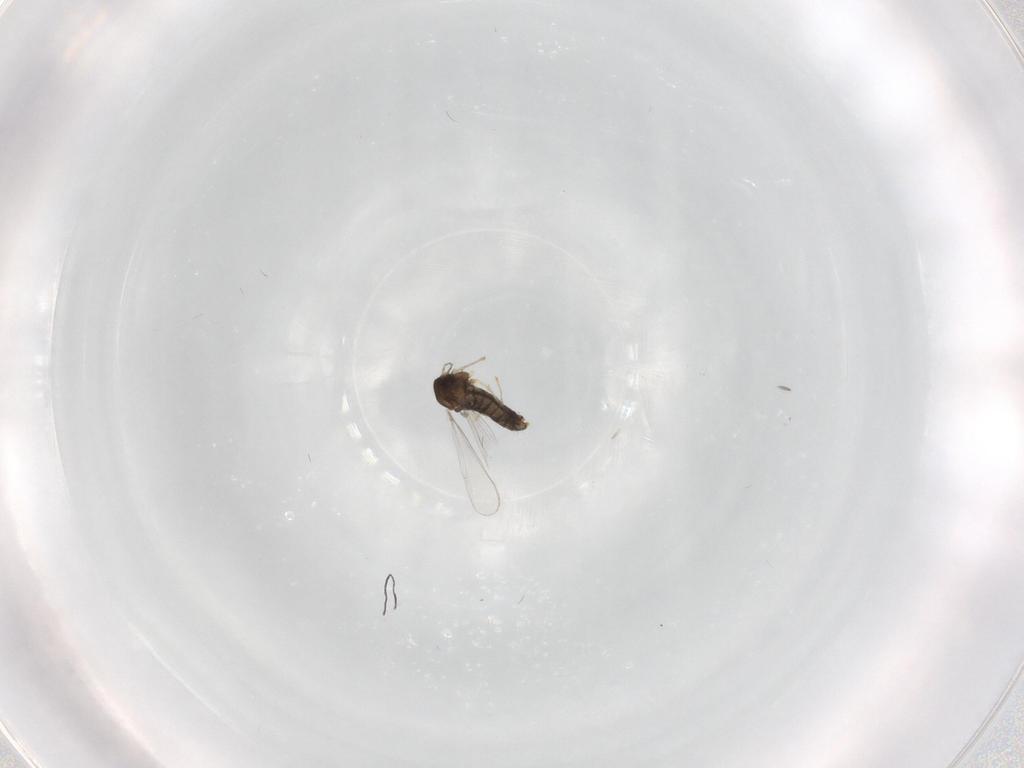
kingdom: Animalia
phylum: Arthropoda
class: Insecta
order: Diptera
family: Chironomidae
